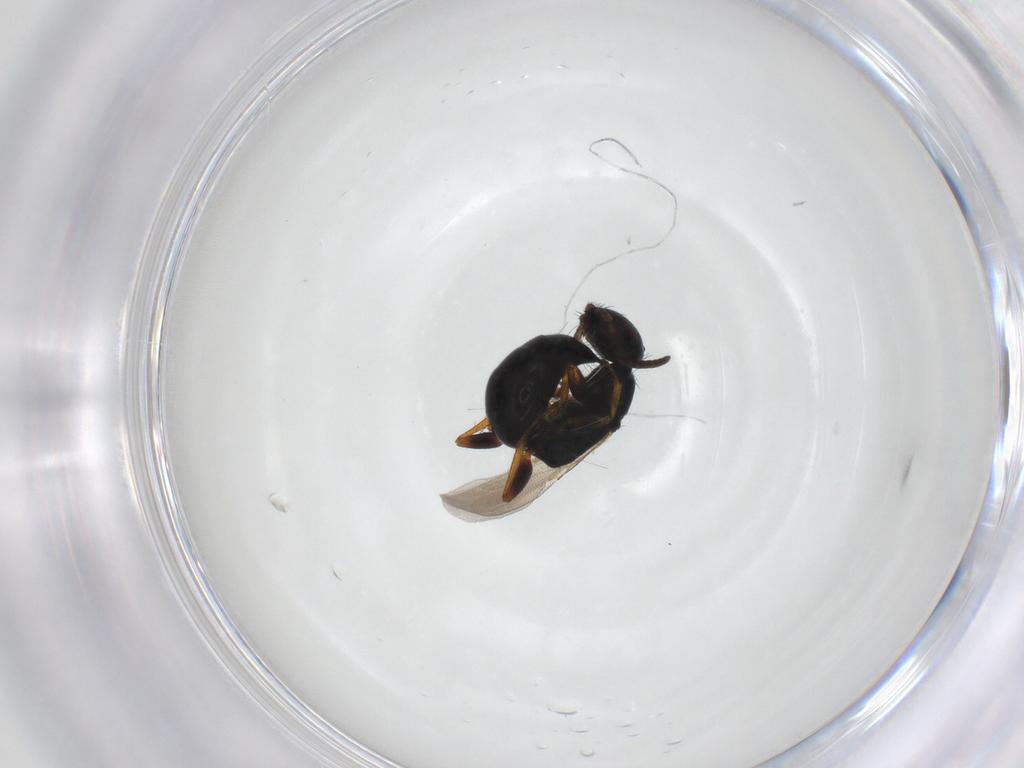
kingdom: Animalia
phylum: Arthropoda
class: Insecta
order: Hymenoptera
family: Bethylidae
